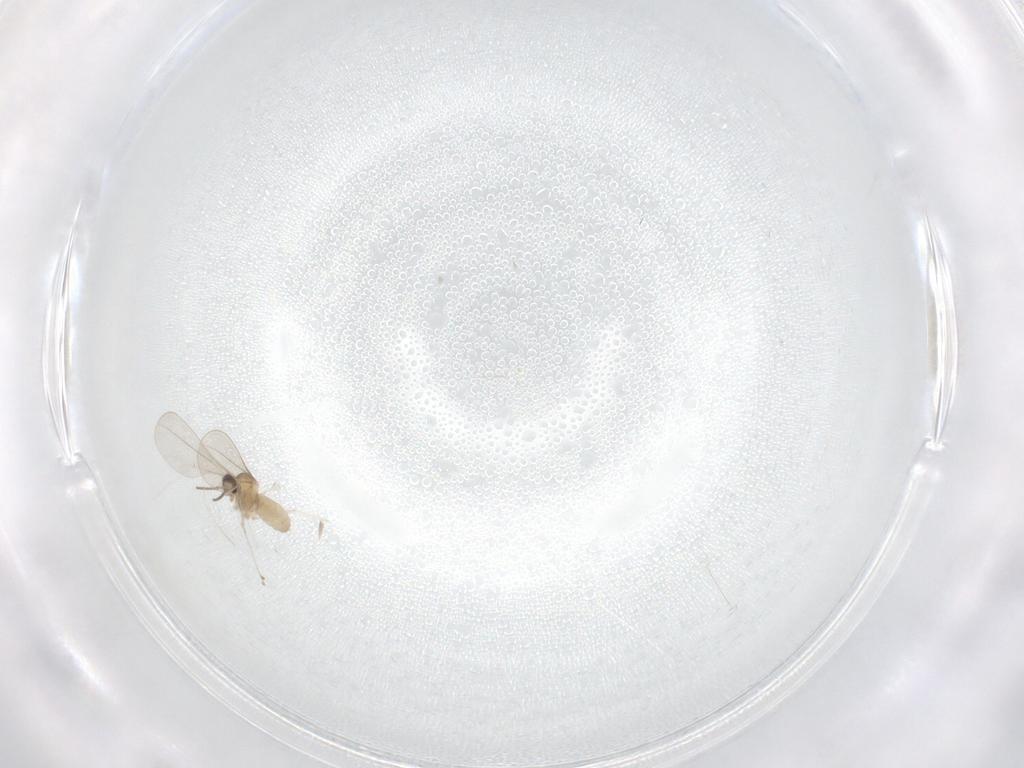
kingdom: Animalia
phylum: Arthropoda
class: Insecta
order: Diptera
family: Cecidomyiidae
